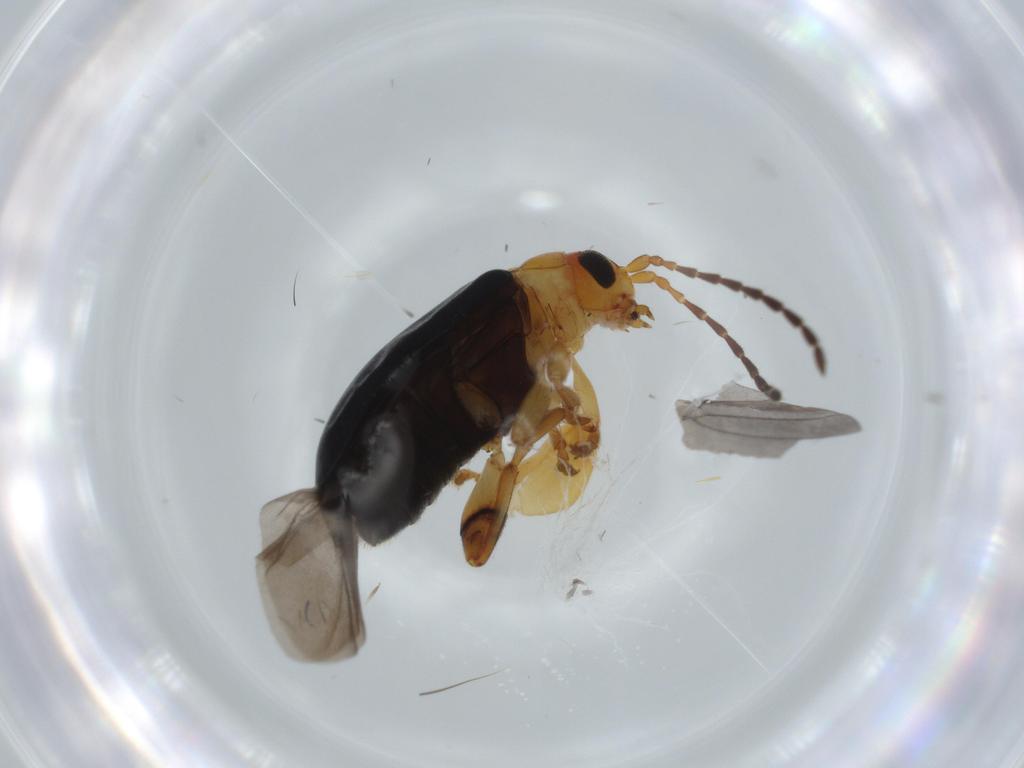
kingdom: Animalia
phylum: Arthropoda
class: Insecta
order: Coleoptera
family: Chrysomelidae
